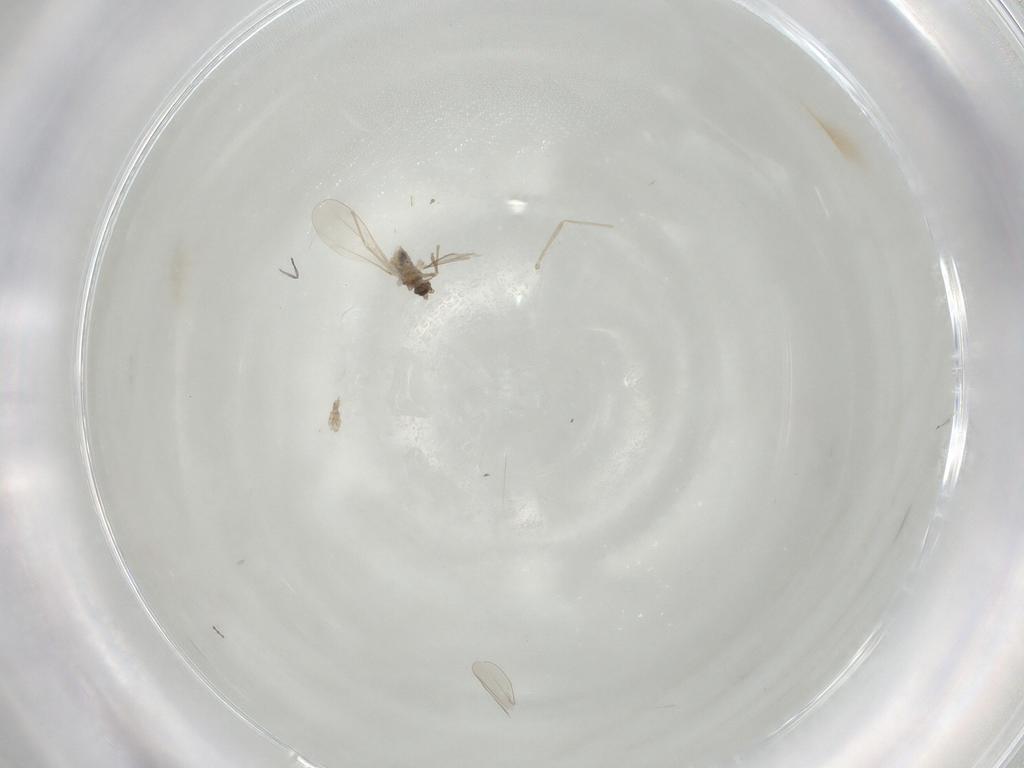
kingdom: Animalia
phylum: Arthropoda
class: Insecta
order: Diptera
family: Cecidomyiidae
